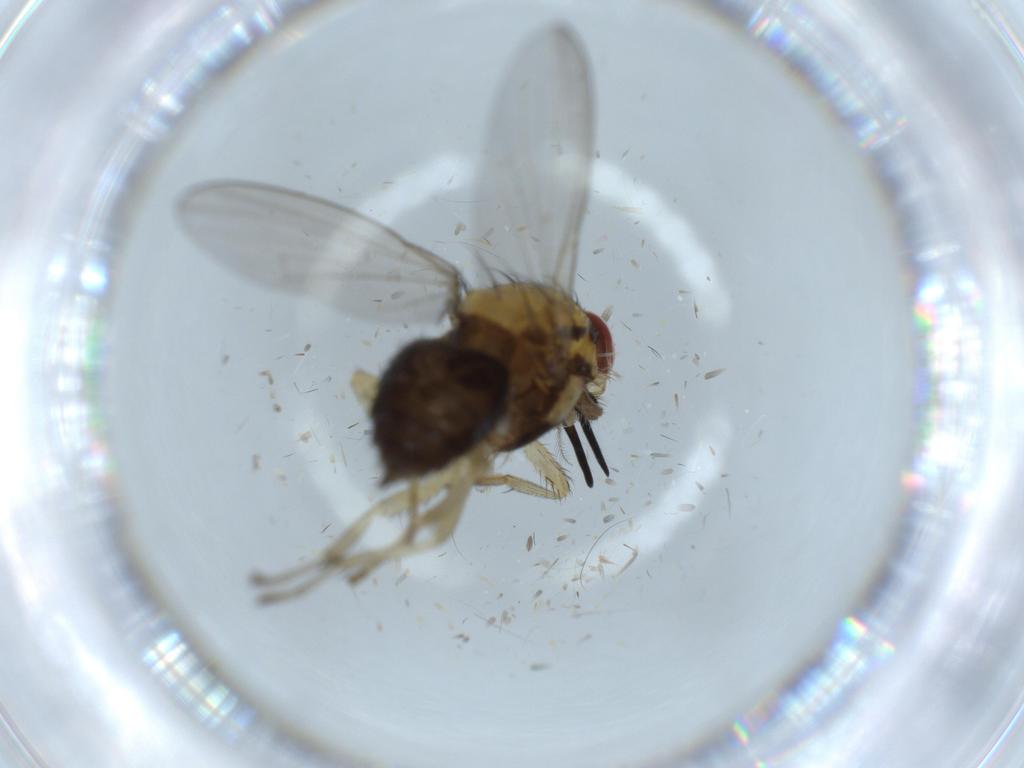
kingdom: Animalia
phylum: Arthropoda
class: Insecta
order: Diptera
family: Lauxaniidae
